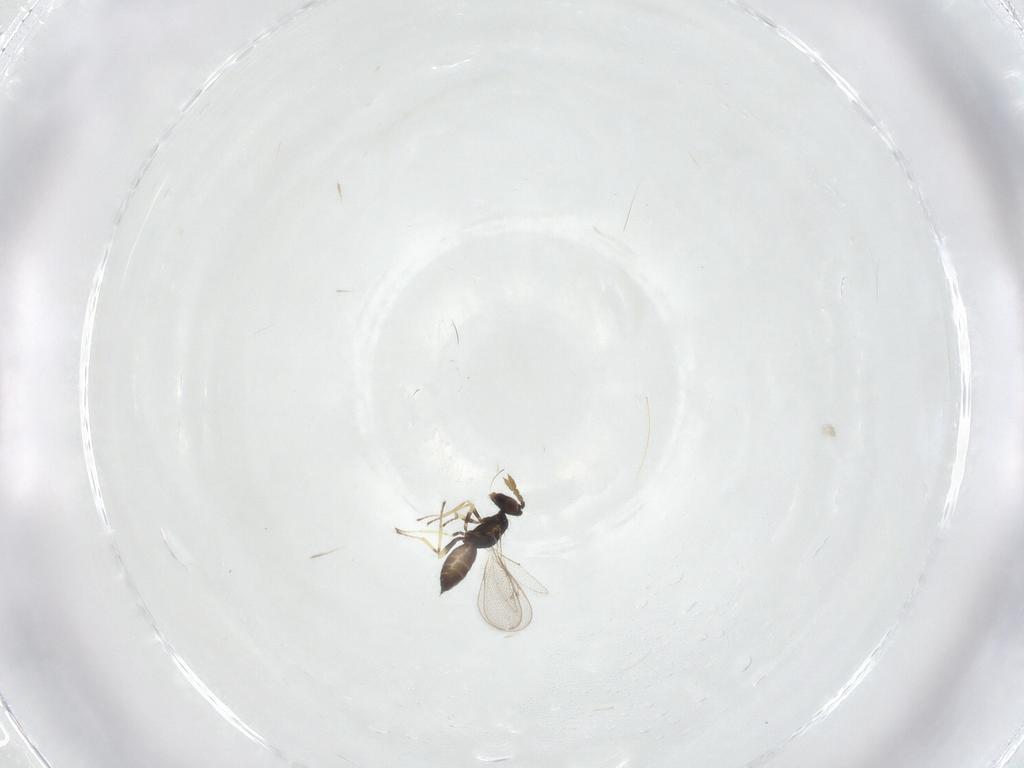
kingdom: Animalia
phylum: Arthropoda
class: Insecta
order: Hymenoptera
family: Eulophidae
